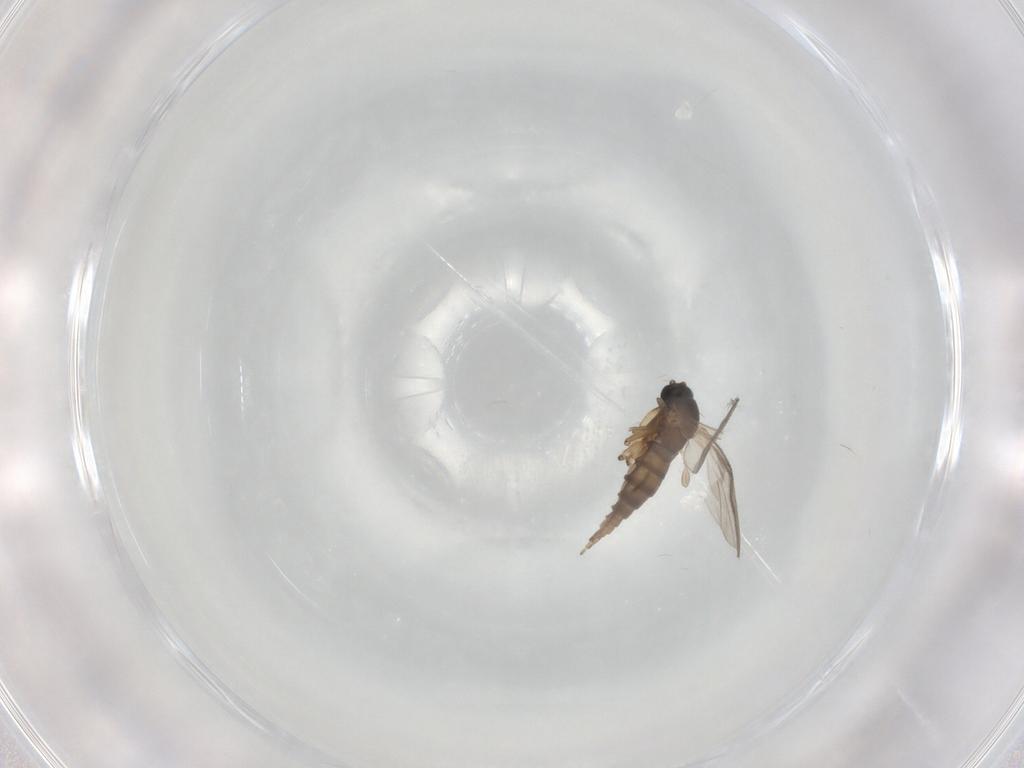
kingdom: Animalia
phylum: Arthropoda
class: Insecta
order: Diptera
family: Sciaridae
